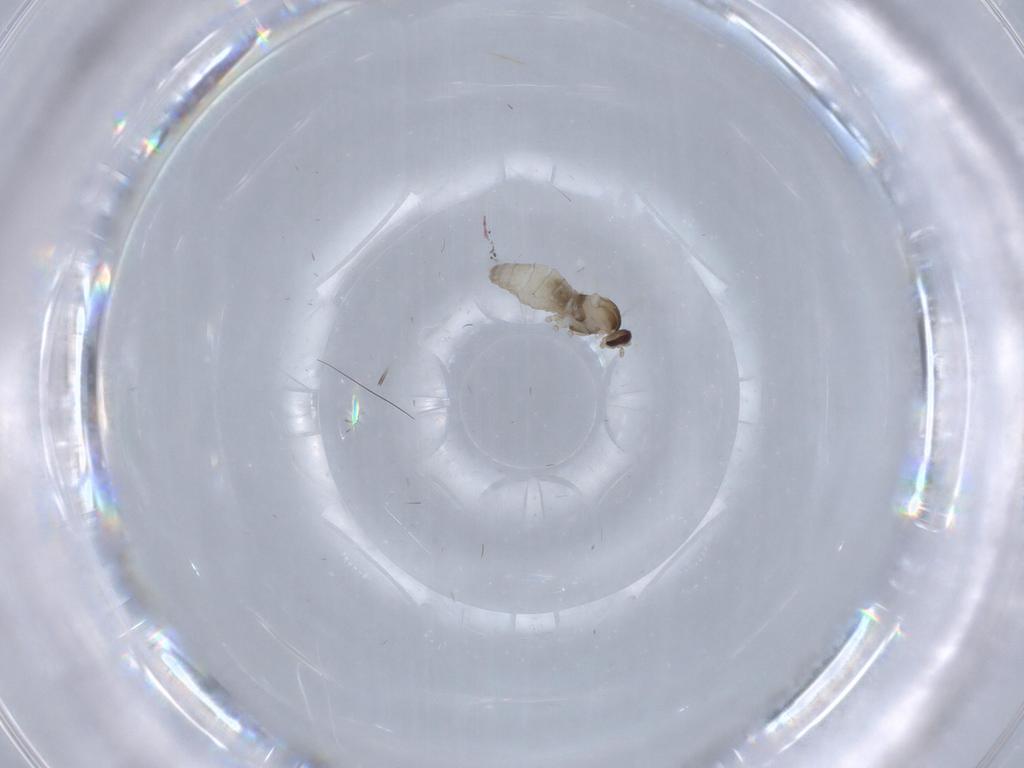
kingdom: Animalia
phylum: Arthropoda
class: Insecta
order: Diptera
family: Cecidomyiidae
